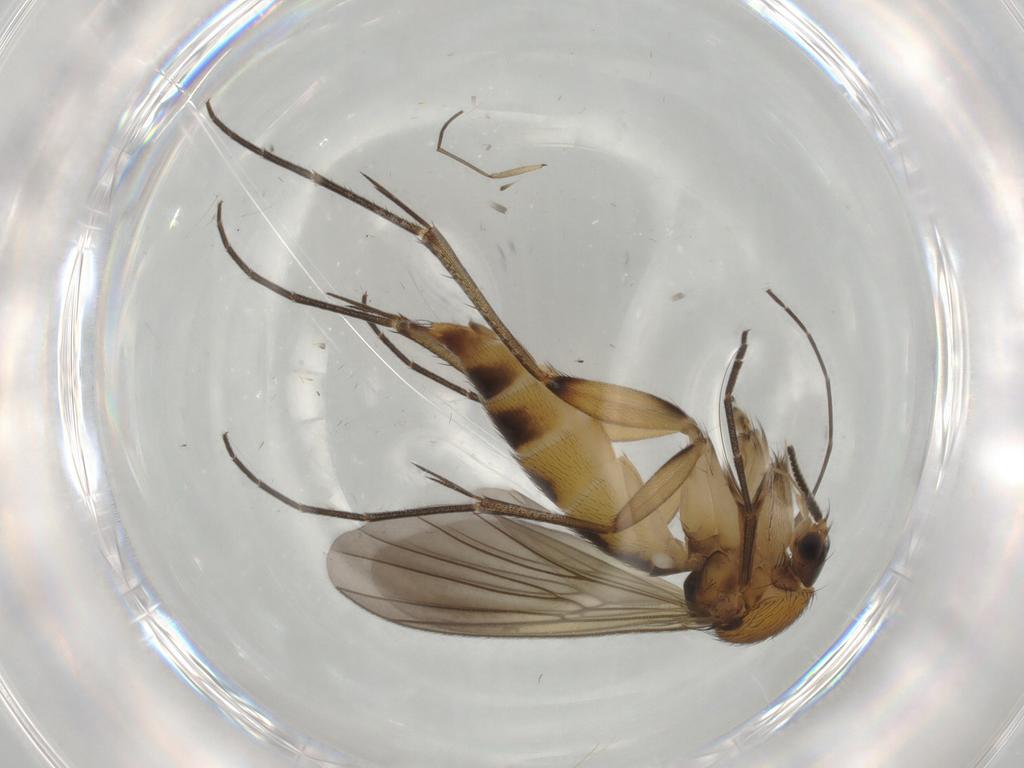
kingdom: Animalia
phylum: Arthropoda
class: Insecta
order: Diptera
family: Mycetophilidae
